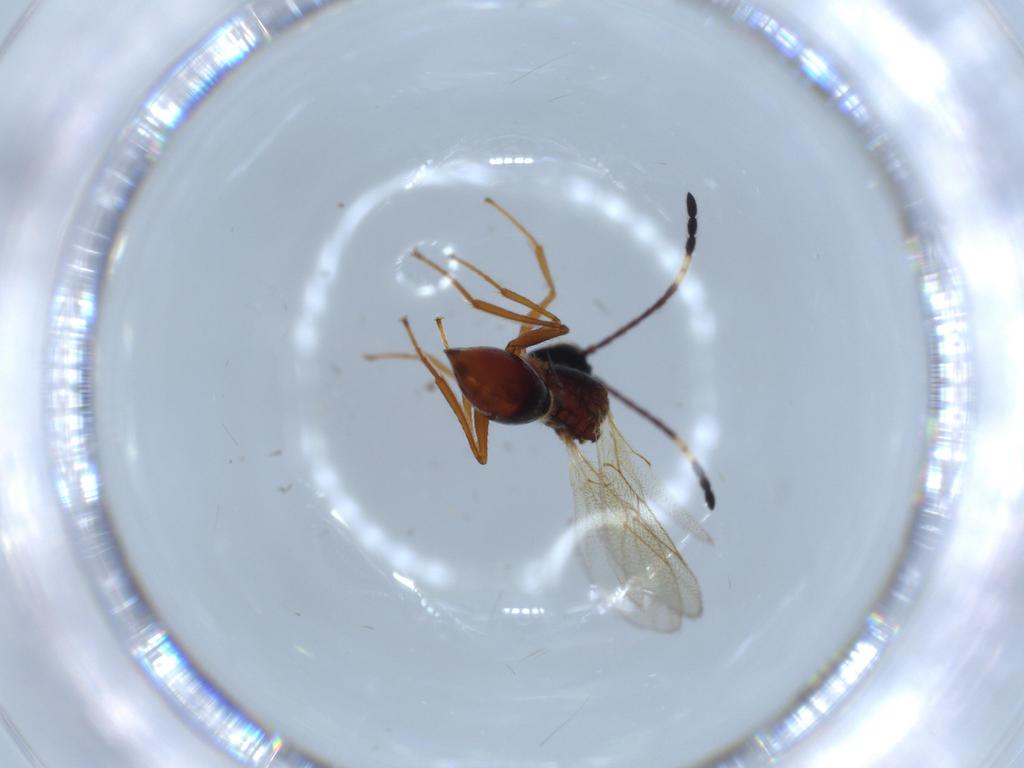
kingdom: Animalia
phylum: Arthropoda
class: Insecta
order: Hymenoptera
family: Figitidae
